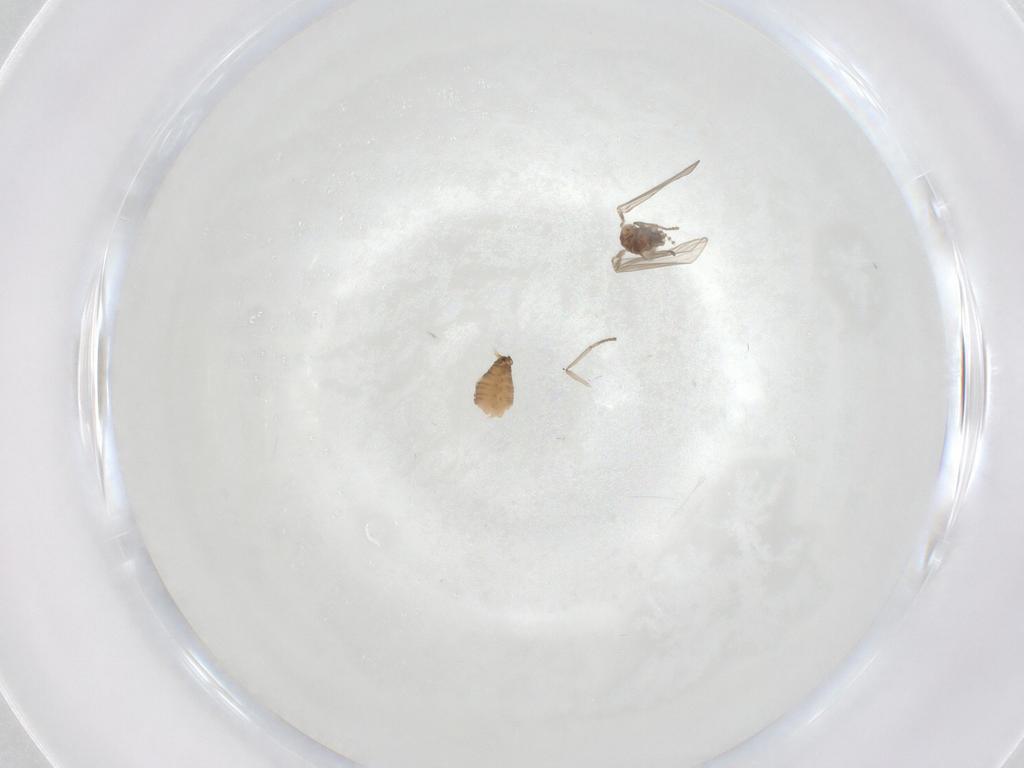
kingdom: Animalia
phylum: Arthropoda
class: Insecta
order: Diptera
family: Psychodidae
